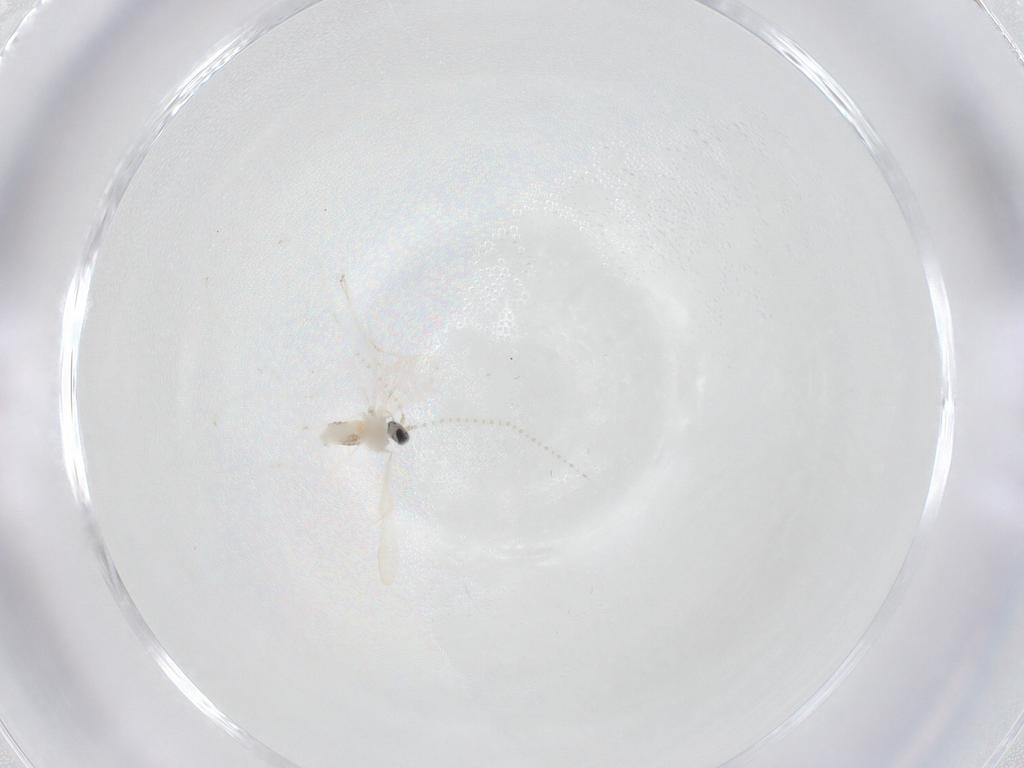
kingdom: Animalia
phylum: Arthropoda
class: Insecta
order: Diptera
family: Cecidomyiidae
